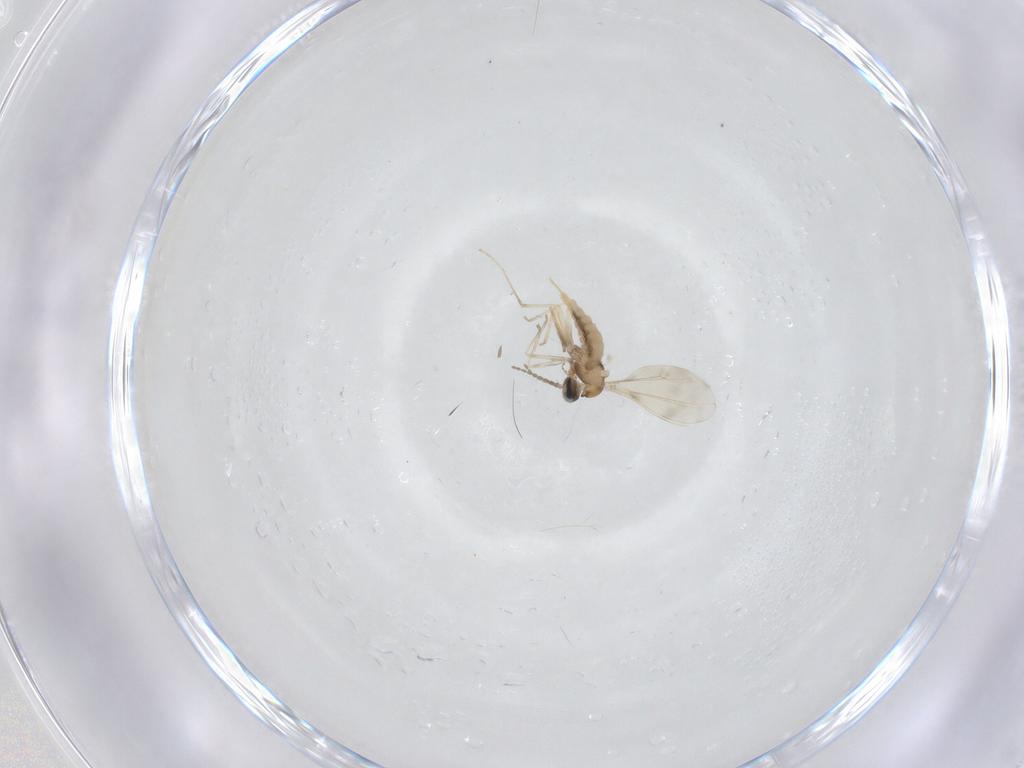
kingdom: Animalia
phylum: Arthropoda
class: Insecta
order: Diptera
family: Cecidomyiidae
